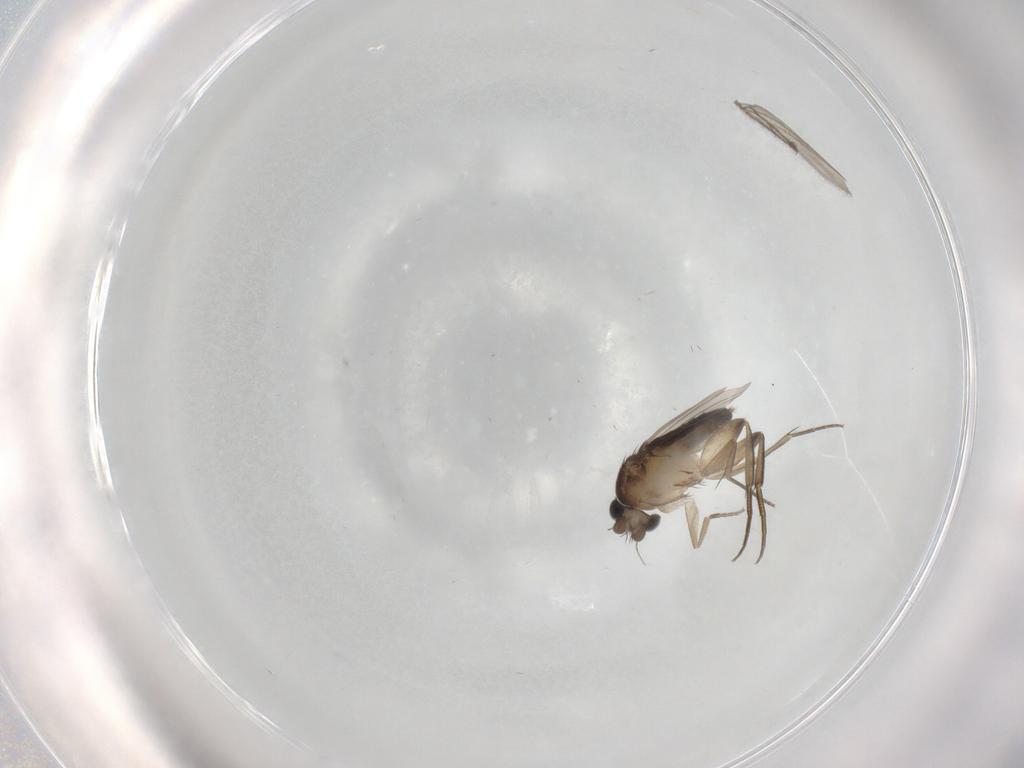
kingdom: Animalia
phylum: Arthropoda
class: Insecta
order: Diptera
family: Phoridae
